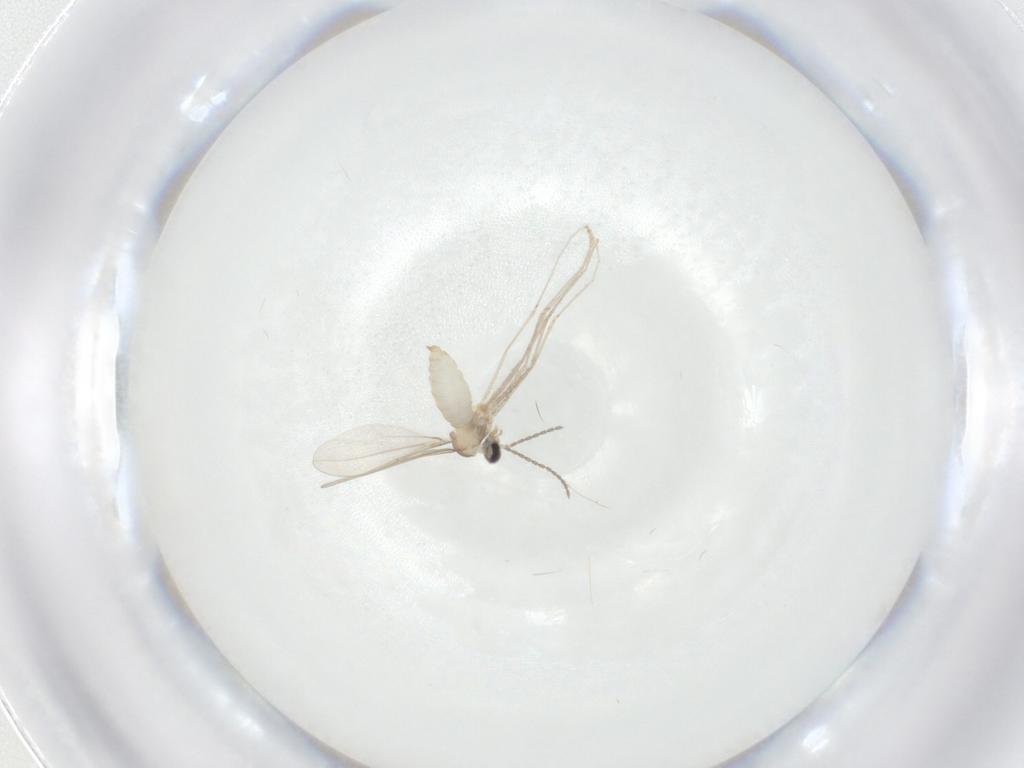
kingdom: Animalia
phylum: Arthropoda
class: Insecta
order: Diptera
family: Cecidomyiidae
